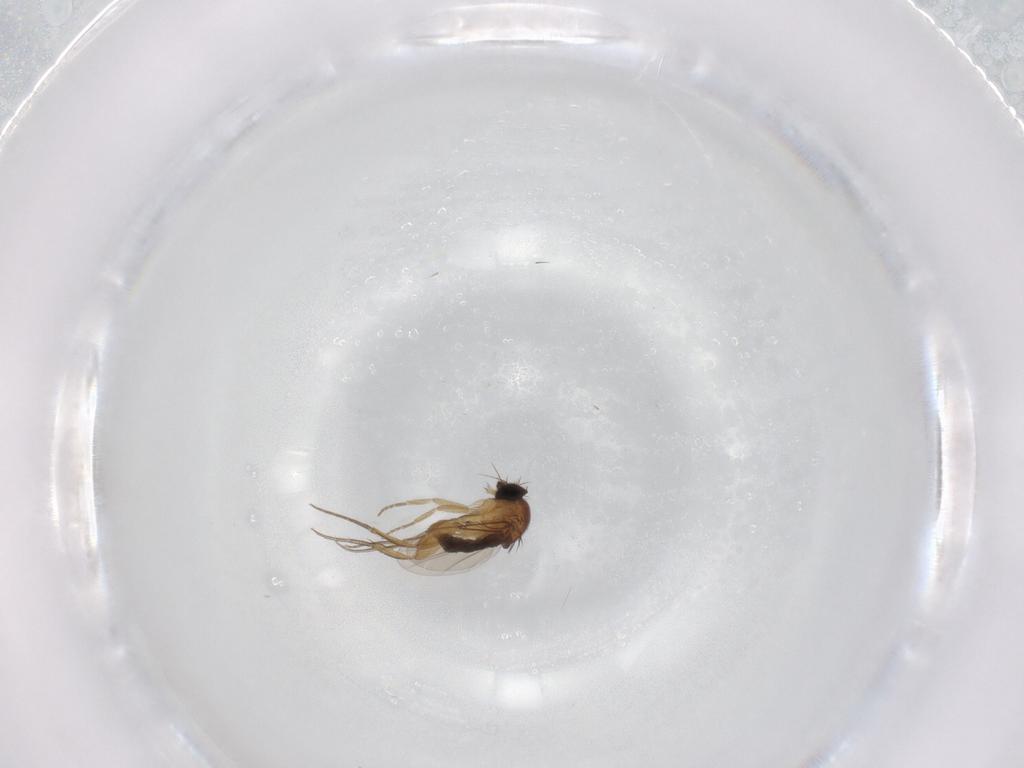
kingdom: Animalia
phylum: Arthropoda
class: Insecta
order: Diptera
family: Phoridae
